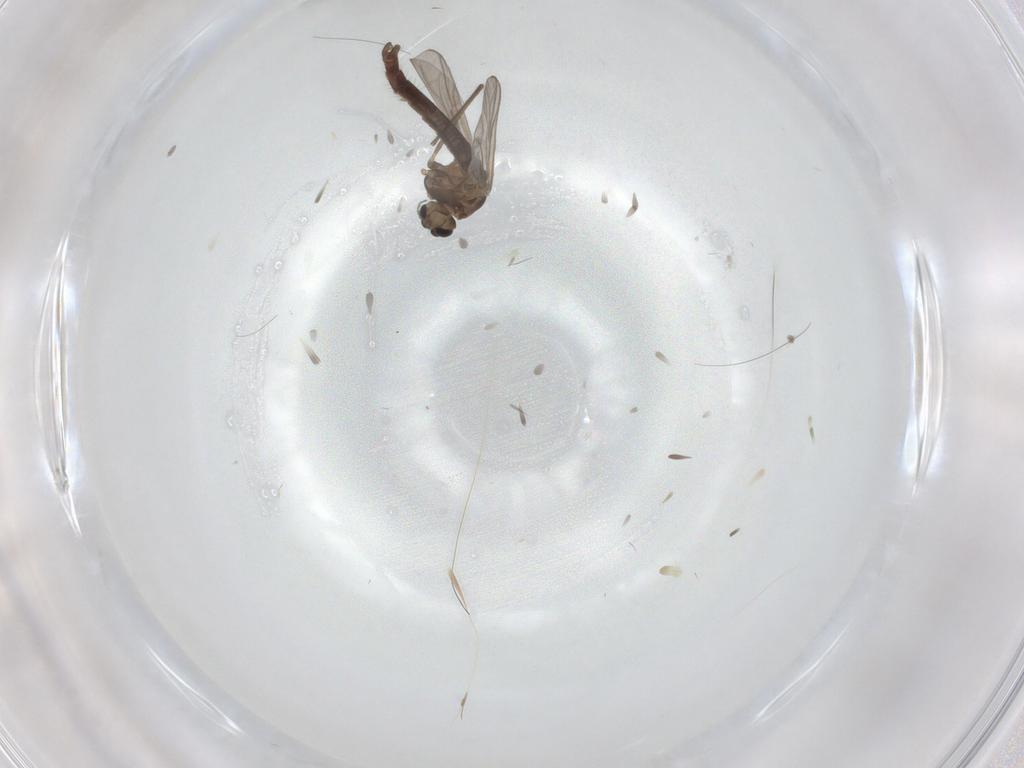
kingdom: Animalia
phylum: Arthropoda
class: Insecta
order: Diptera
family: Chironomidae
